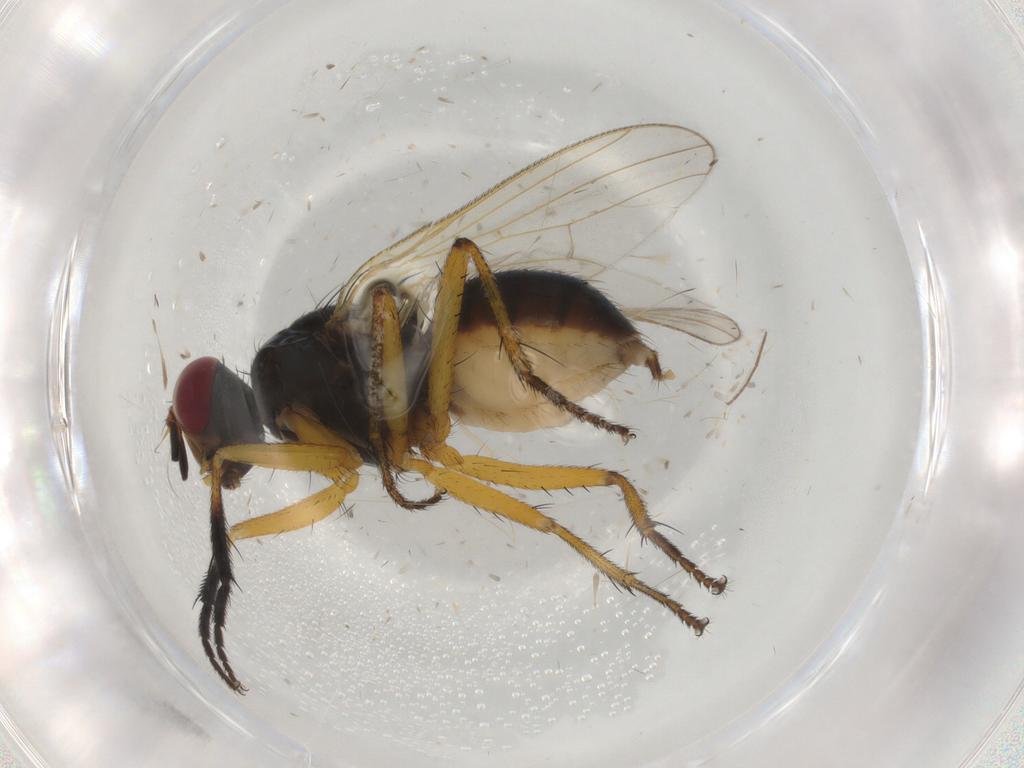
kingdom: Animalia
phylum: Arthropoda
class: Insecta
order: Diptera
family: Chloropidae
